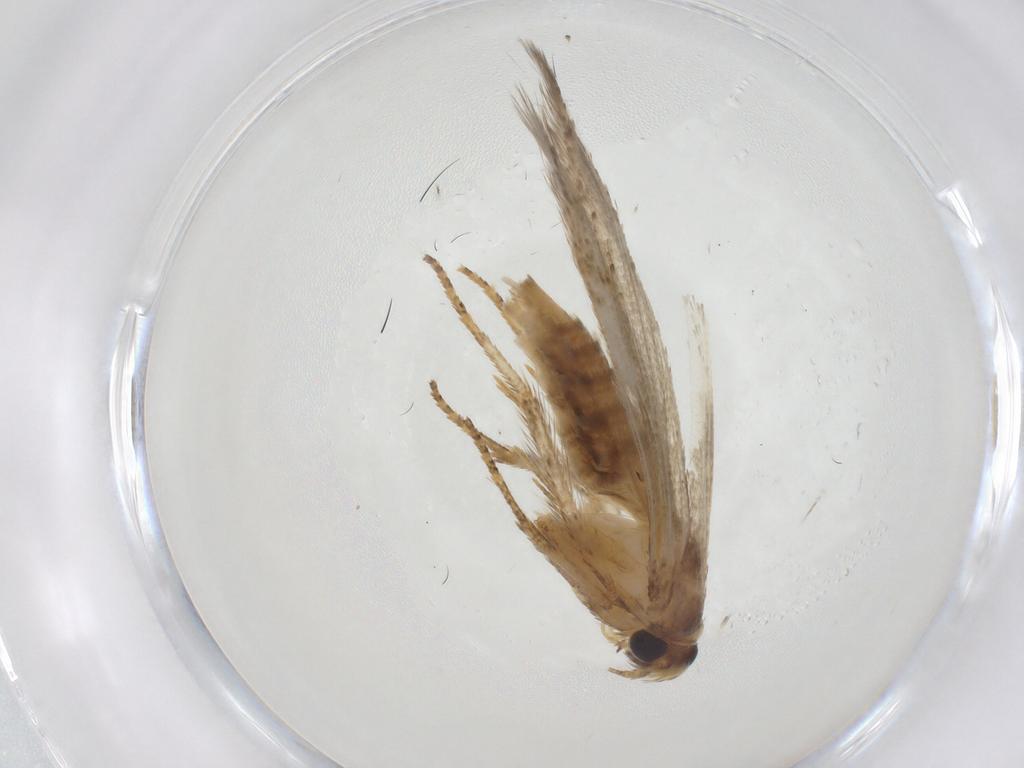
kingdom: Animalia
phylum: Arthropoda
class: Insecta
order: Lepidoptera
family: Blastobasidae
